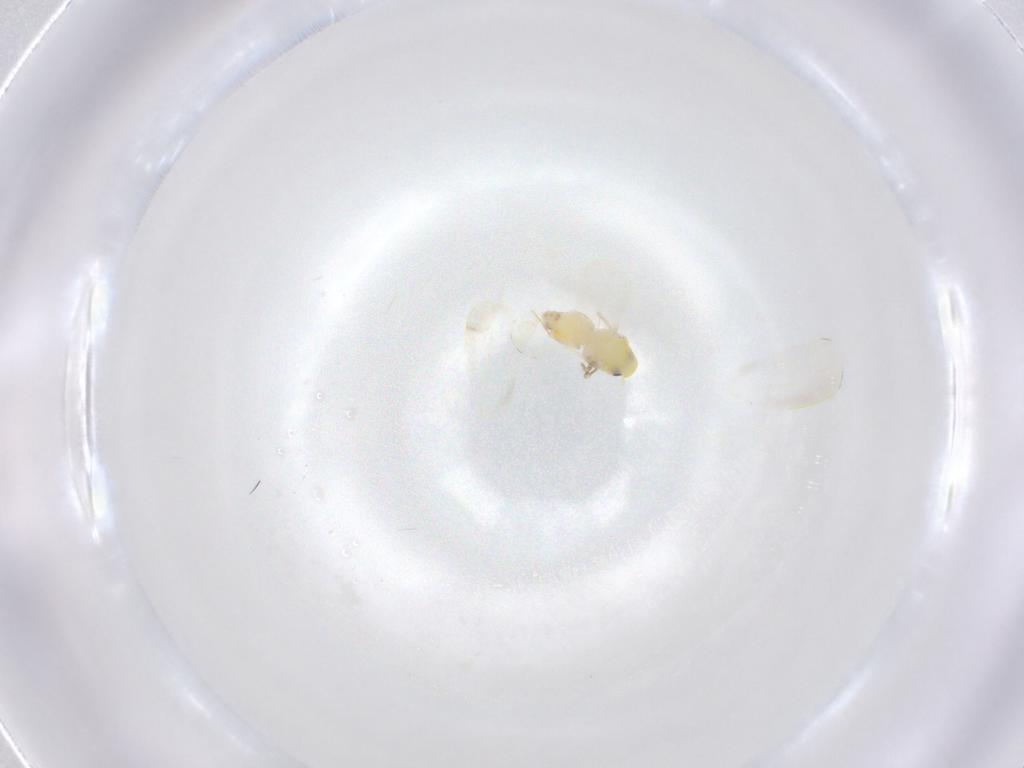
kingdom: Animalia
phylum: Arthropoda
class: Insecta
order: Hemiptera
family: Aleyrodidae
